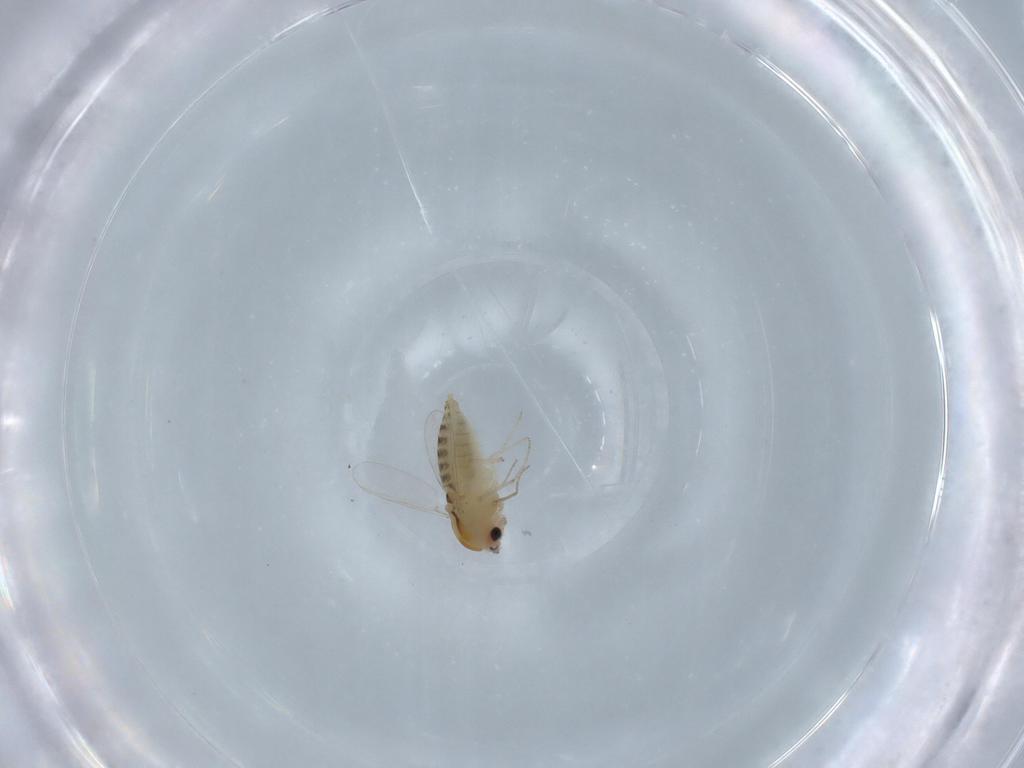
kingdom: Animalia
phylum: Arthropoda
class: Insecta
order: Diptera
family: Chironomidae
